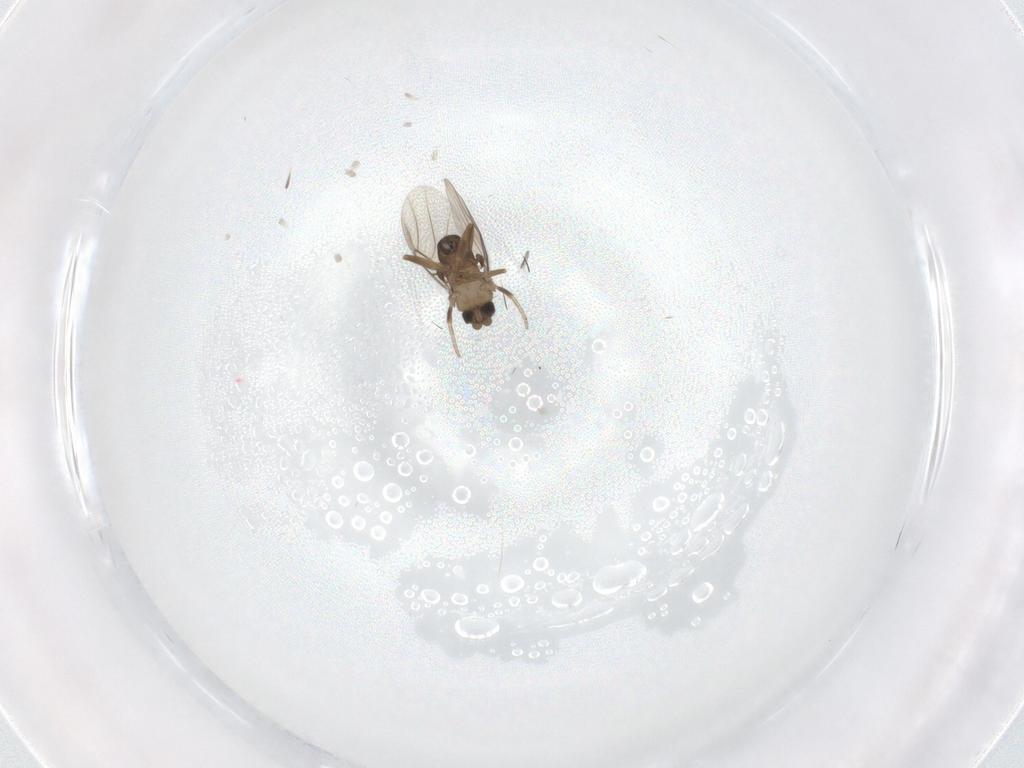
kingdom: Animalia
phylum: Arthropoda
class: Insecta
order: Diptera
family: Phoridae
